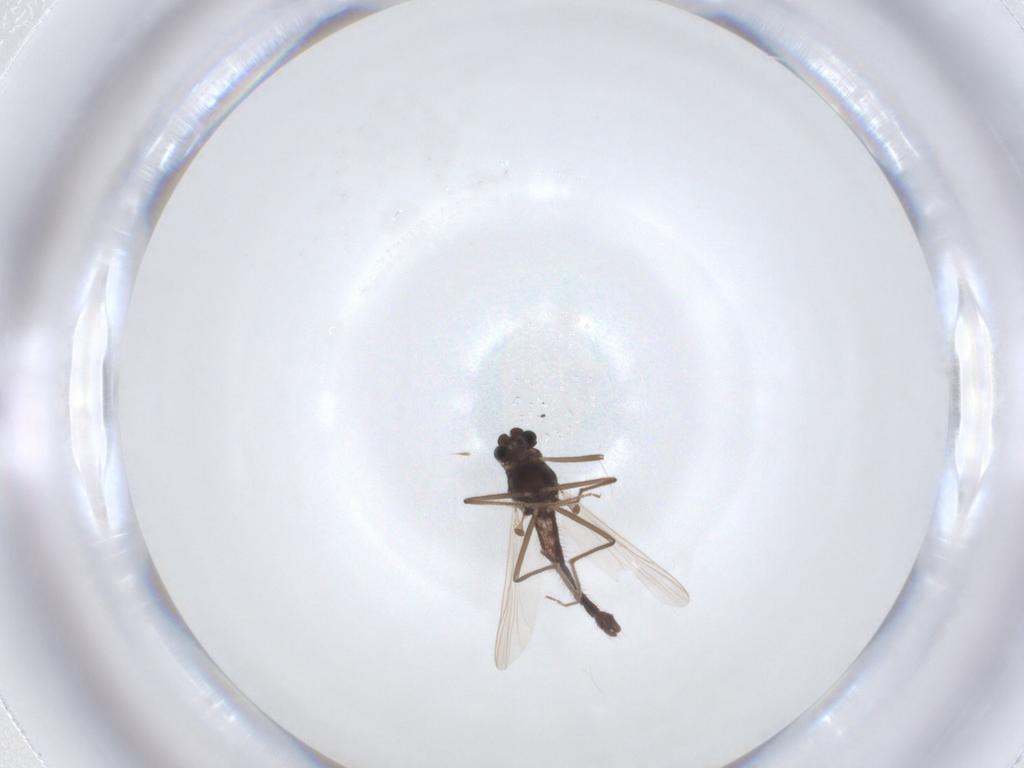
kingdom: Animalia
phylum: Arthropoda
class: Insecta
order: Diptera
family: Chironomidae
